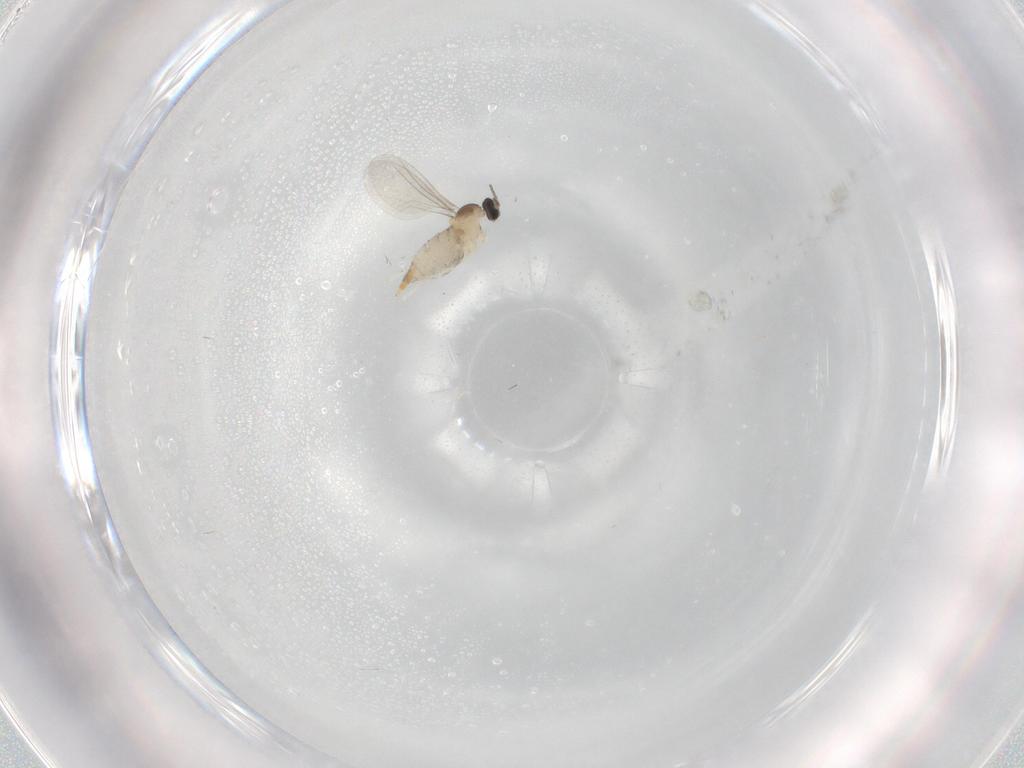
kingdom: Animalia
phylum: Arthropoda
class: Insecta
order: Diptera
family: Cecidomyiidae
